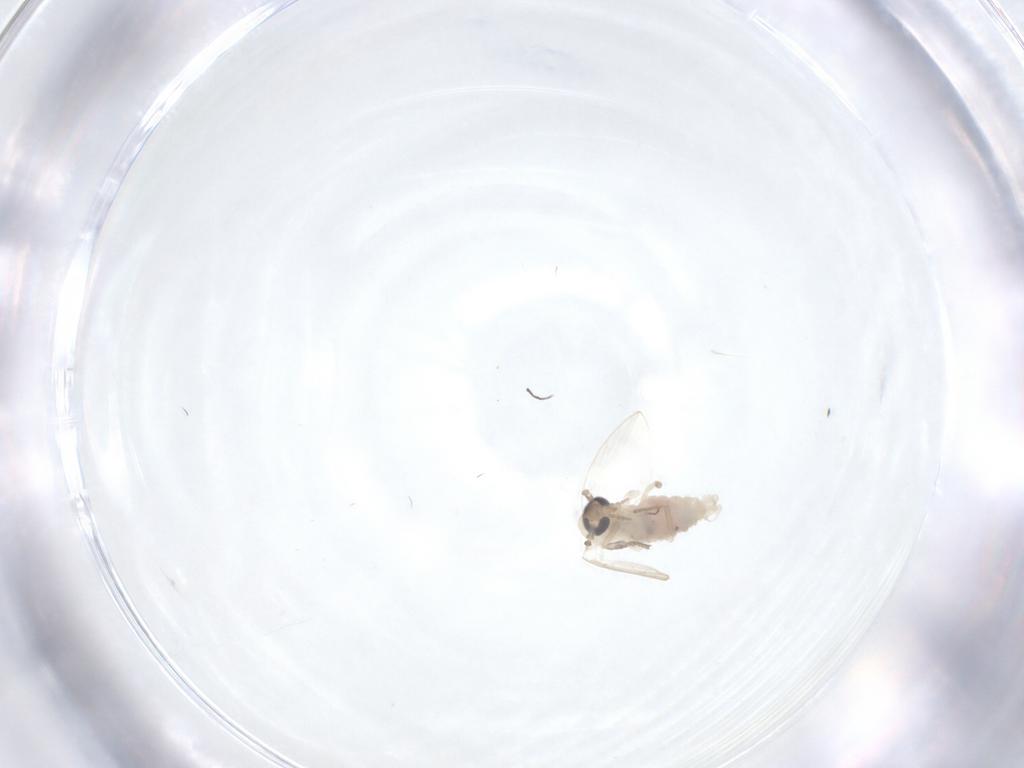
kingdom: Animalia
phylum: Arthropoda
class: Insecta
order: Diptera
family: Psychodidae
